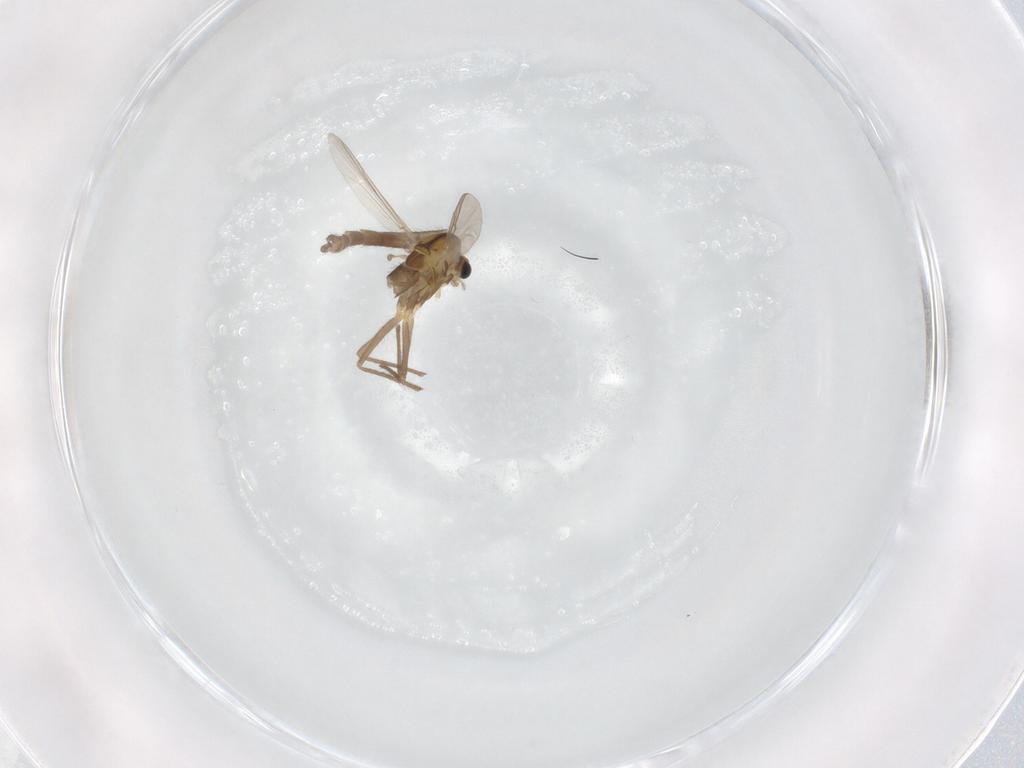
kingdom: Animalia
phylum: Arthropoda
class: Insecta
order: Diptera
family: Chironomidae
